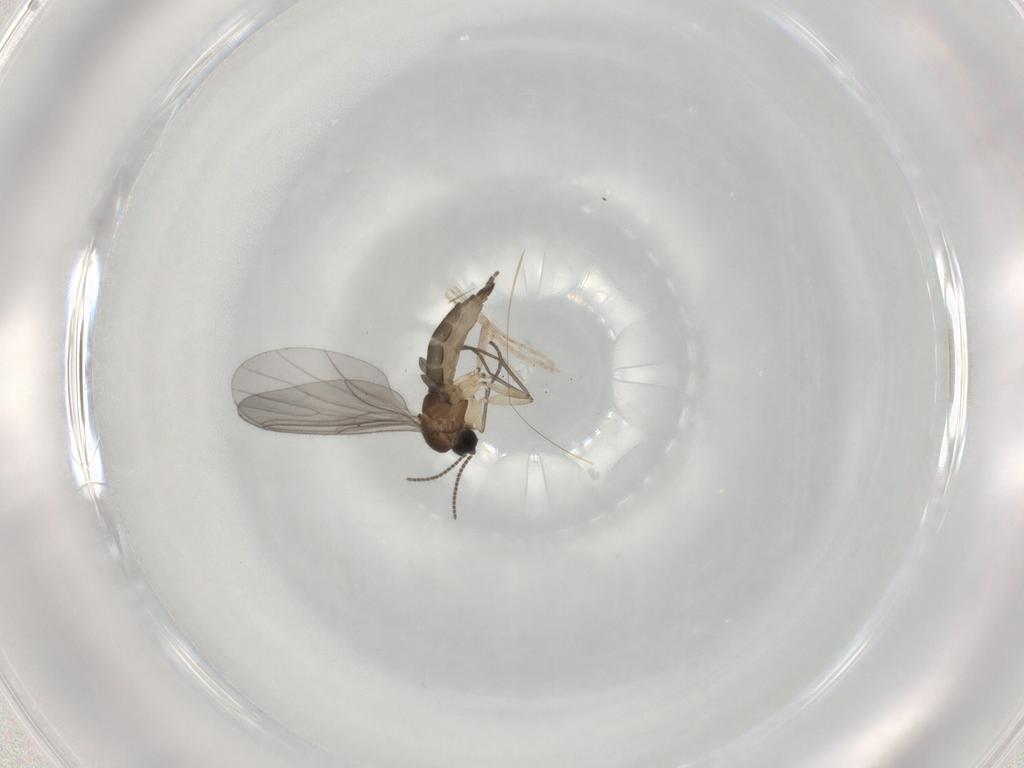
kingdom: Animalia
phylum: Arthropoda
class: Insecta
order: Diptera
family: Sciaridae
